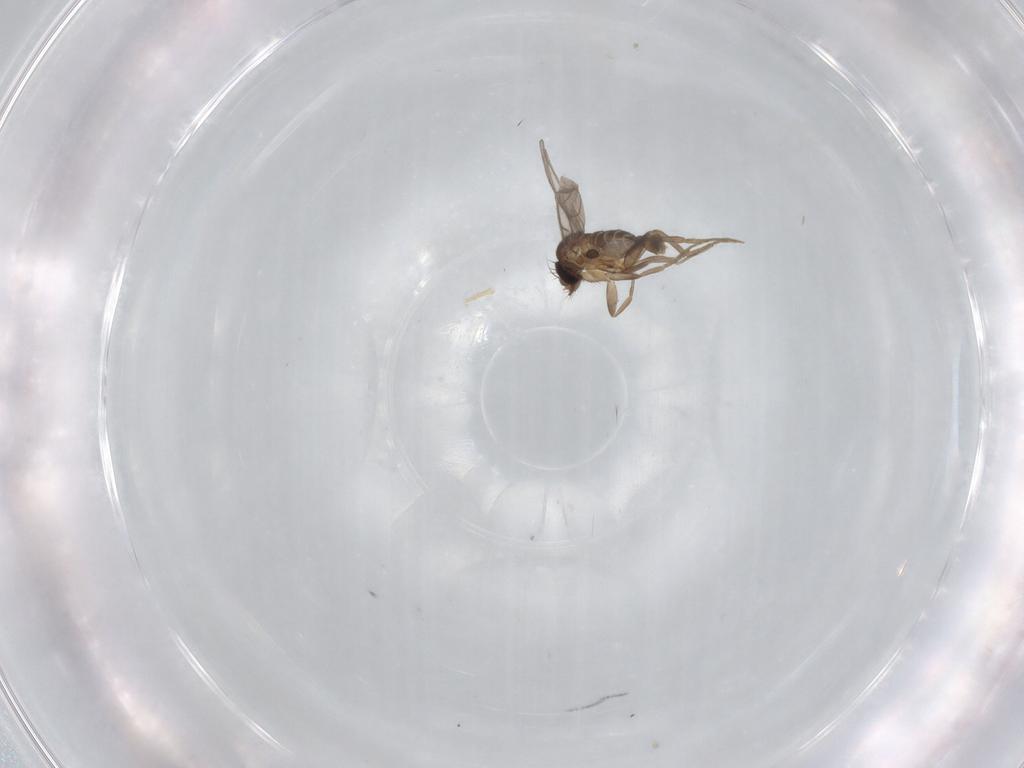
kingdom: Animalia
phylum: Arthropoda
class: Insecta
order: Diptera
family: Phoridae
